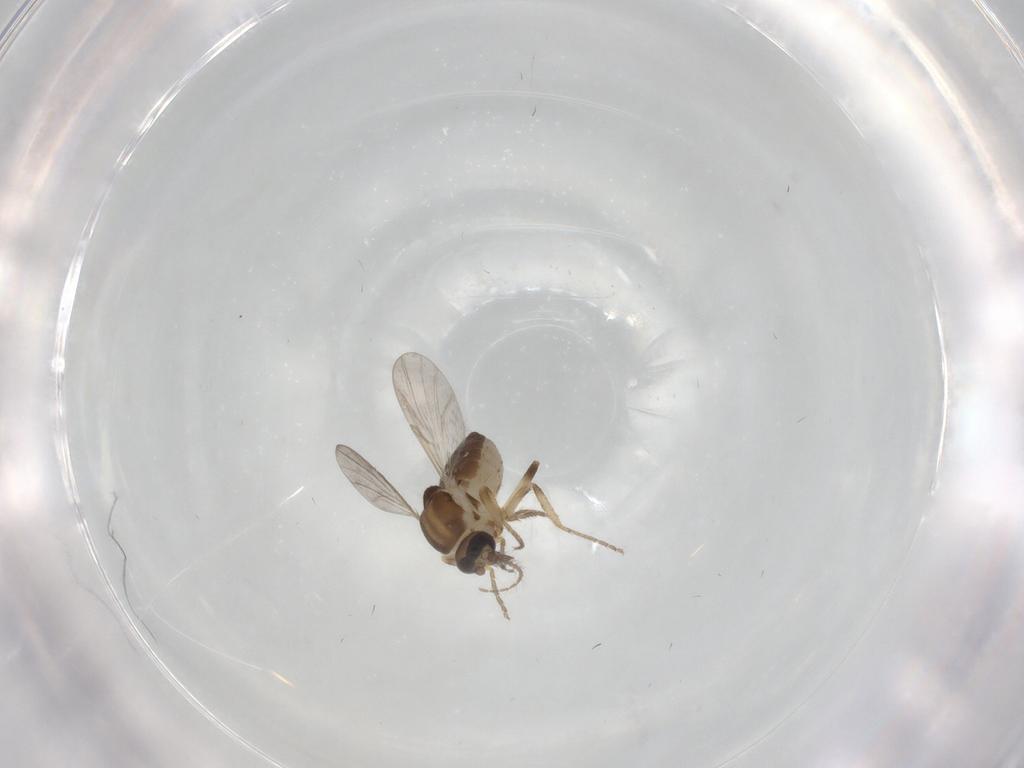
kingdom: Animalia
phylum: Arthropoda
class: Insecta
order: Diptera
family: Ceratopogonidae
